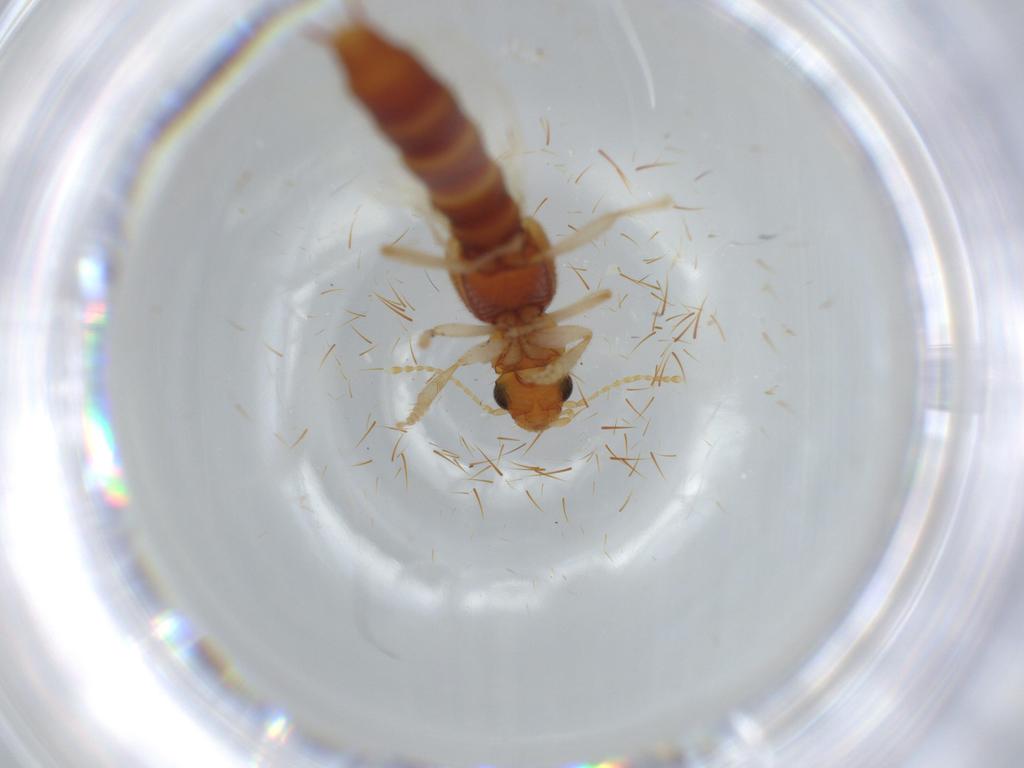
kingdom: Animalia
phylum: Arthropoda
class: Insecta
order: Coleoptera
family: Staphylinidae
